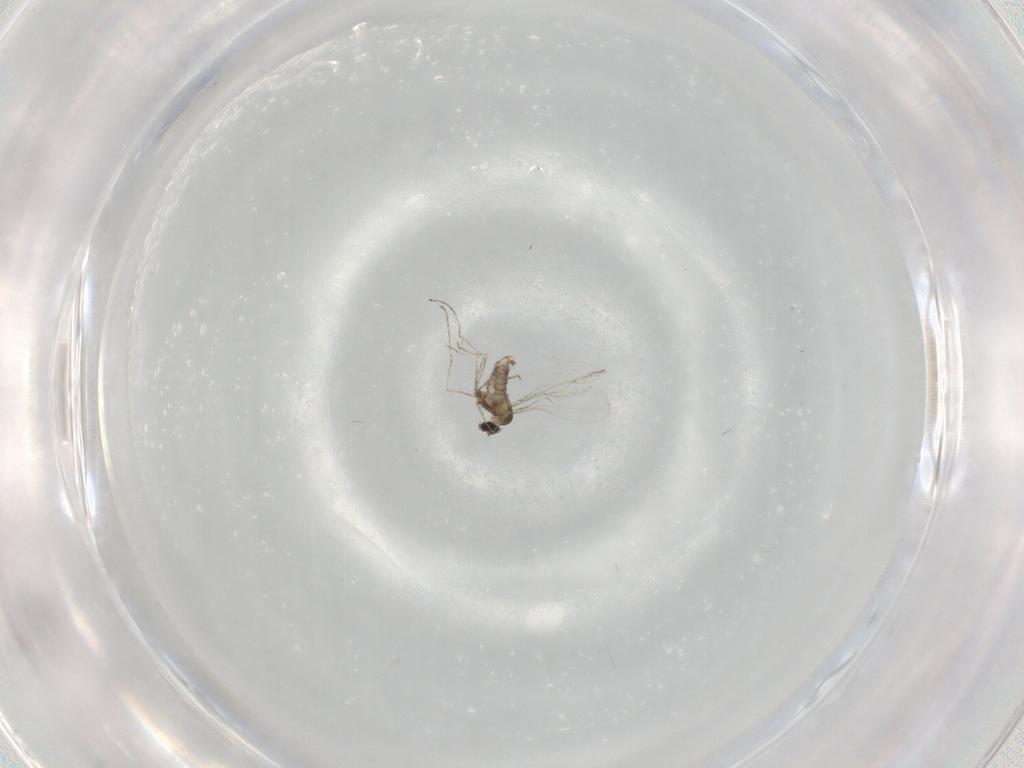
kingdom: Animalia
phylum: Arthropoda
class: Insecta
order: Diptera
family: Cecidomyiidae
